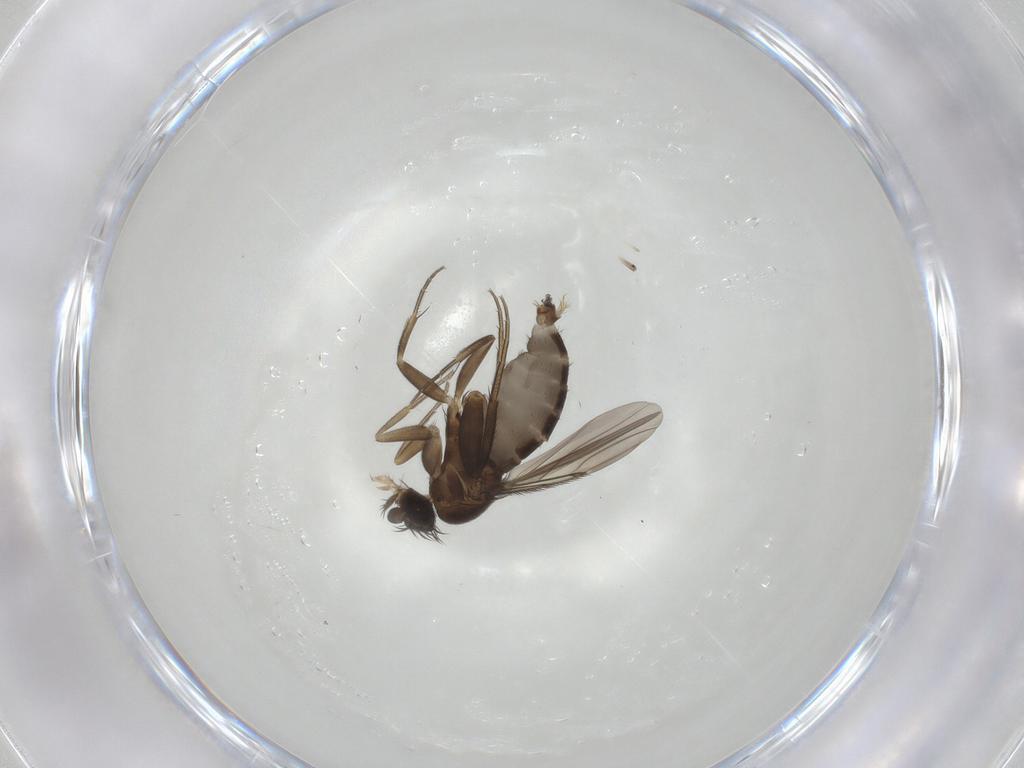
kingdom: Animalia
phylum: Arthropoda
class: Insecta
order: Diptera
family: Phoridae
